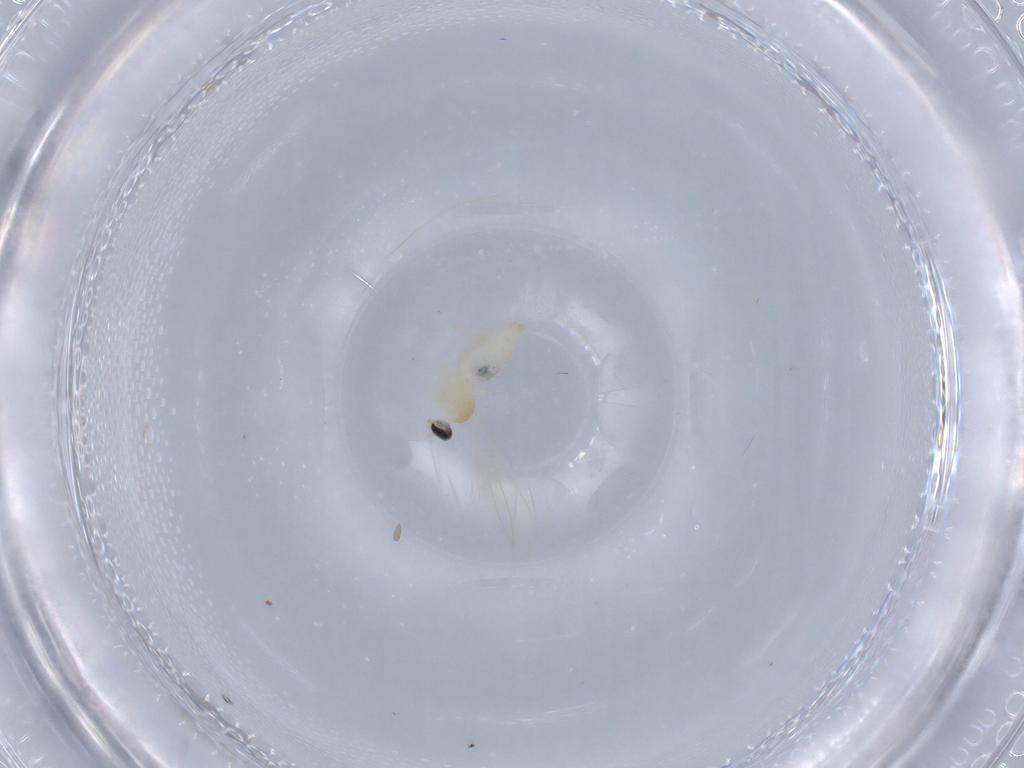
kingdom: Animalia
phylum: Arthropoda
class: Insecta
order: Diptera
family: Cecidomyiidae
